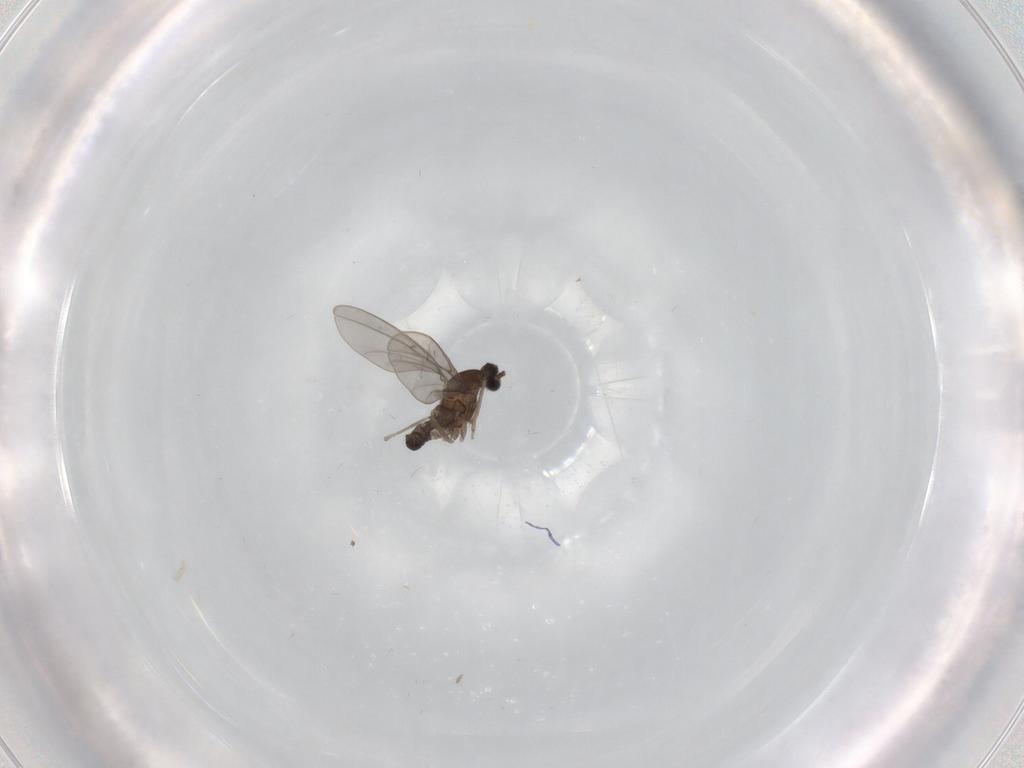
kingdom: Animalia
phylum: Arthropoda
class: Insecta
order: Diptera
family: Cecidomyiidae
